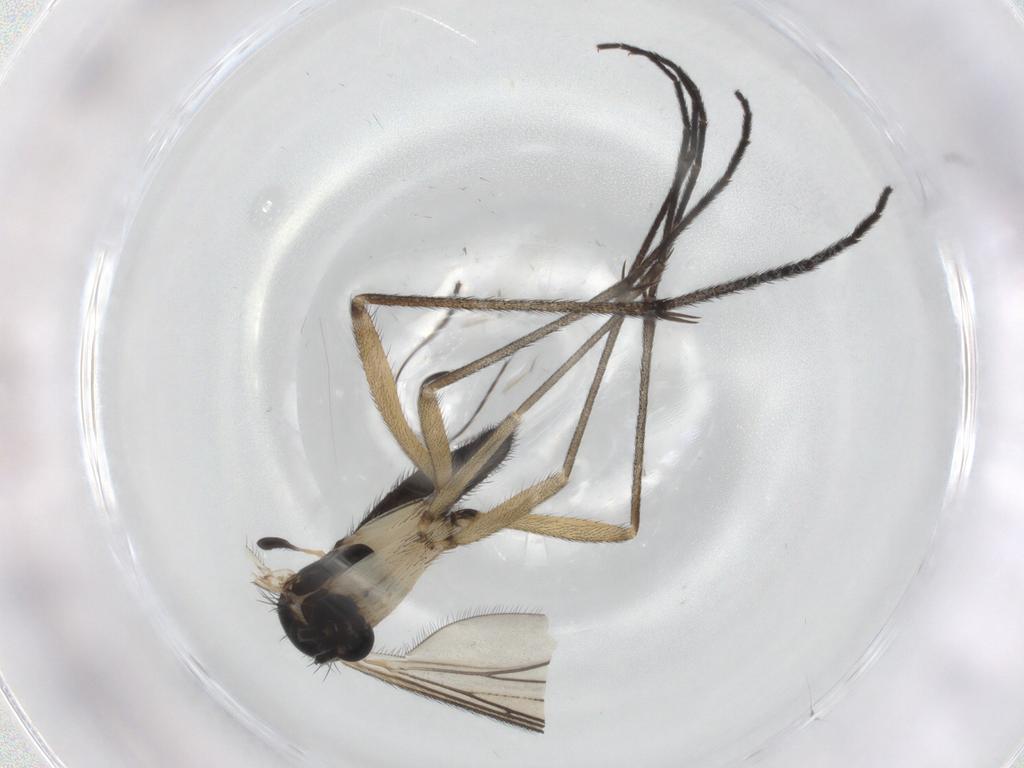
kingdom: Animalia
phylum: Arthropoda
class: Insecta
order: Diptera
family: Sciaridae
